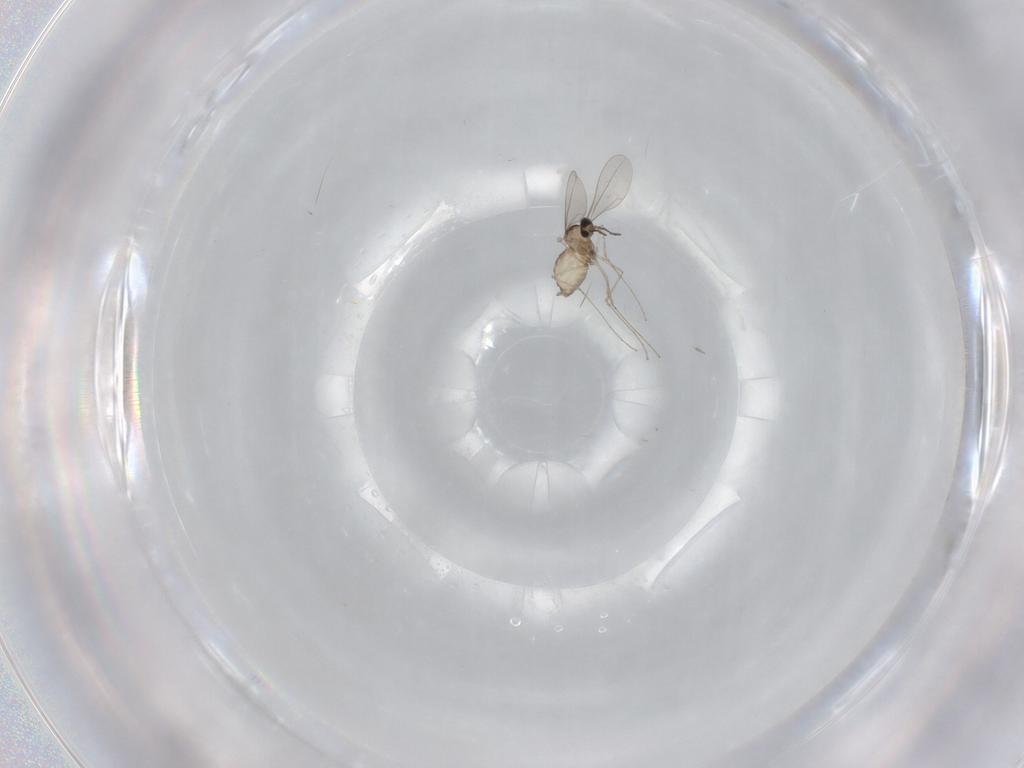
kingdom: Animalia
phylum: Arthropoda
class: Insecta
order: Diptera
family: Cecidomyiidae
